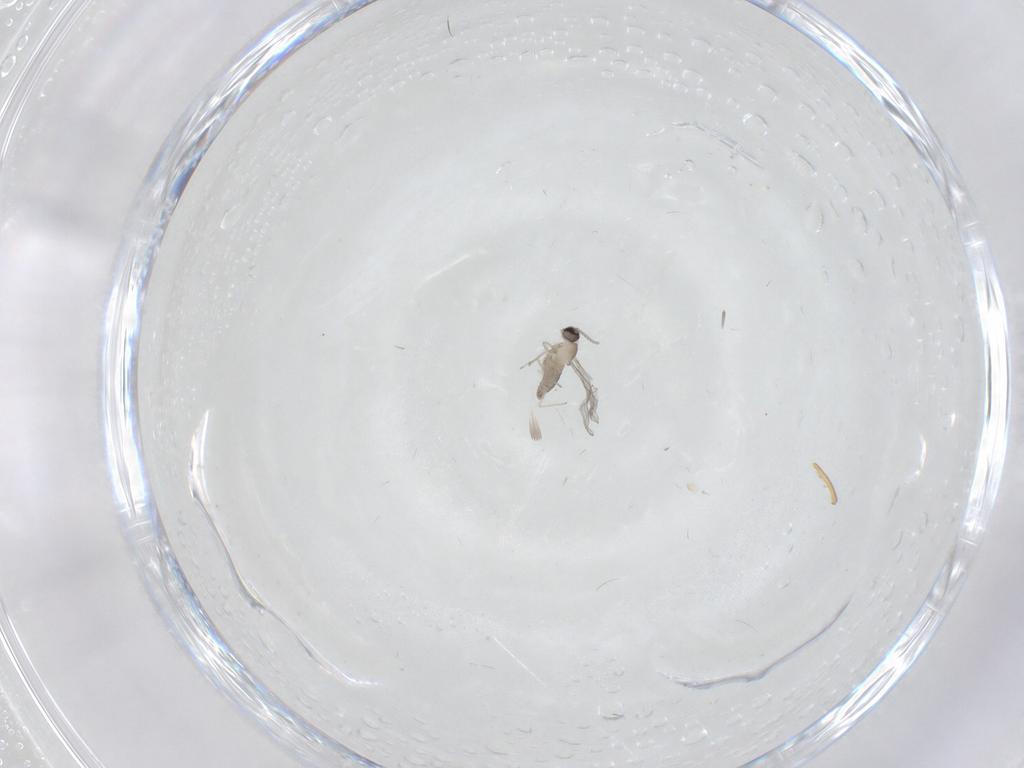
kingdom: Animalia
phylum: Arthropoda
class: Insecta
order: Diptera
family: Cecidomyiidae
